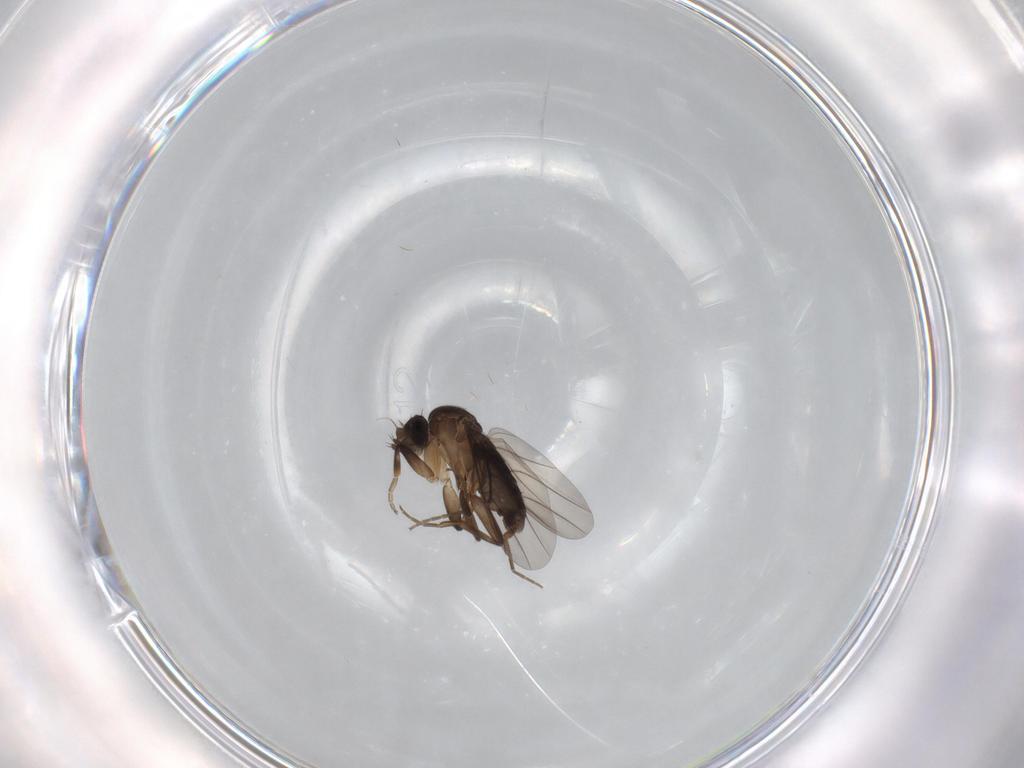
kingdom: Animalia
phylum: Arthropoda
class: Insecta
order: Diptera
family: Phoridae
